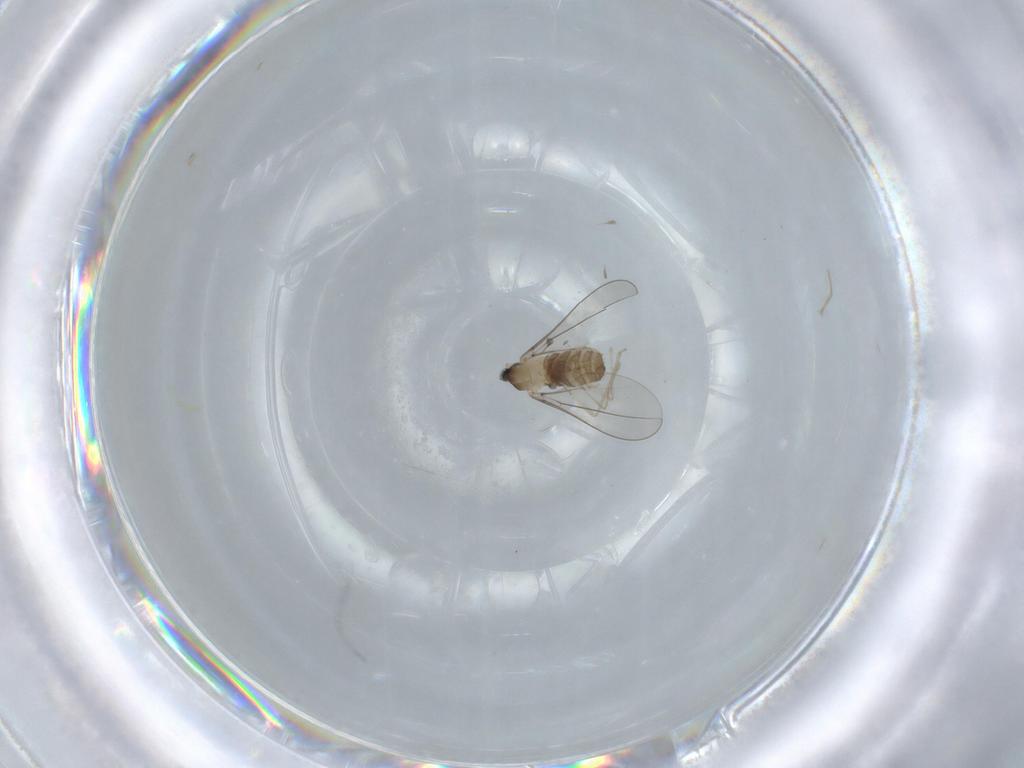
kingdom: Animalia
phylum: Arthropoda
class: Insecta
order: Diptera
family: Cecidomyiidae
